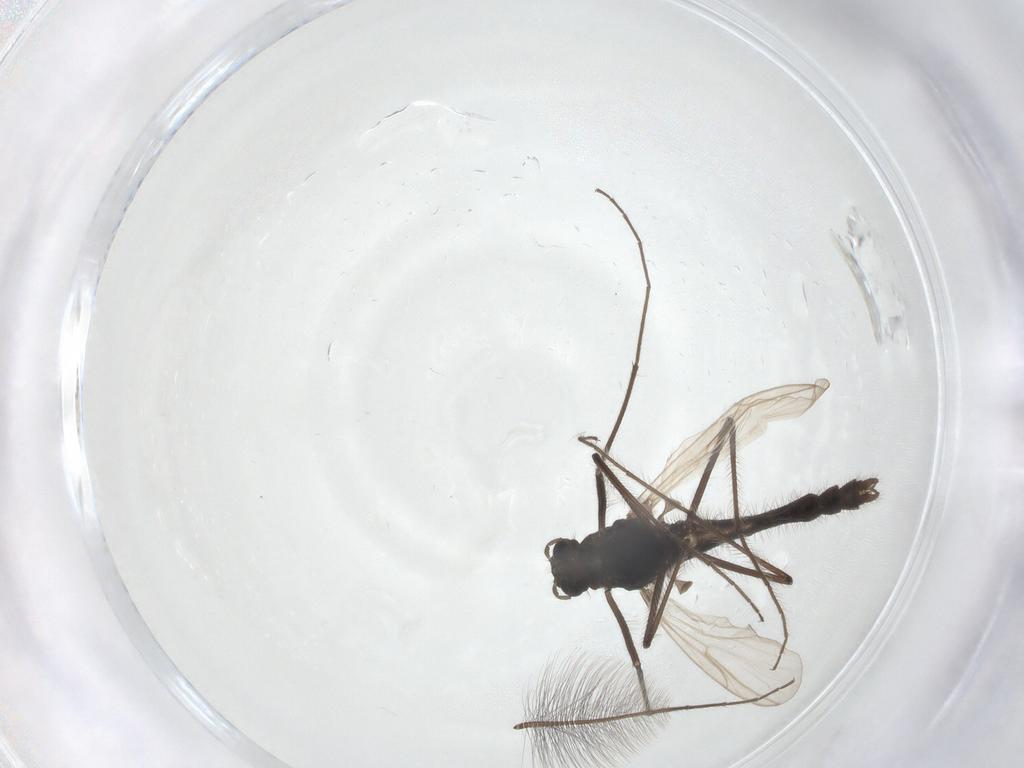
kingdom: Animalia
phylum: Arthropoda
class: Insecta
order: Diptera
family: Chironomidae
